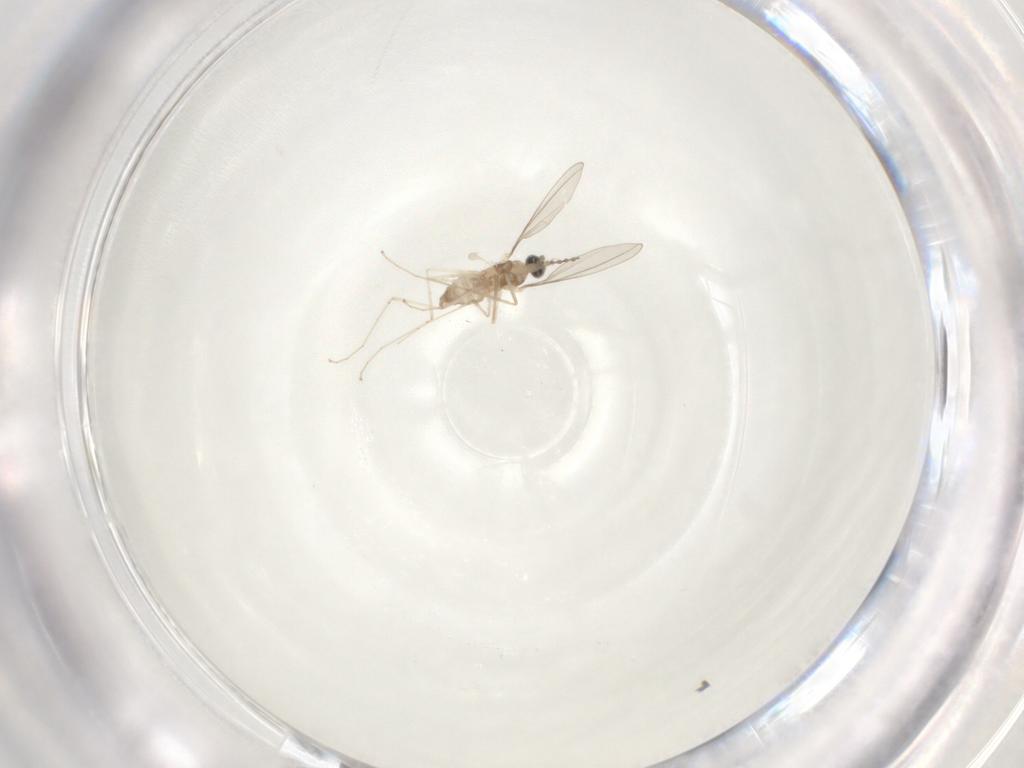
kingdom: Animalia
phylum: Arthropoda
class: Insecta
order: Diptera
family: Cecidomyiidae
